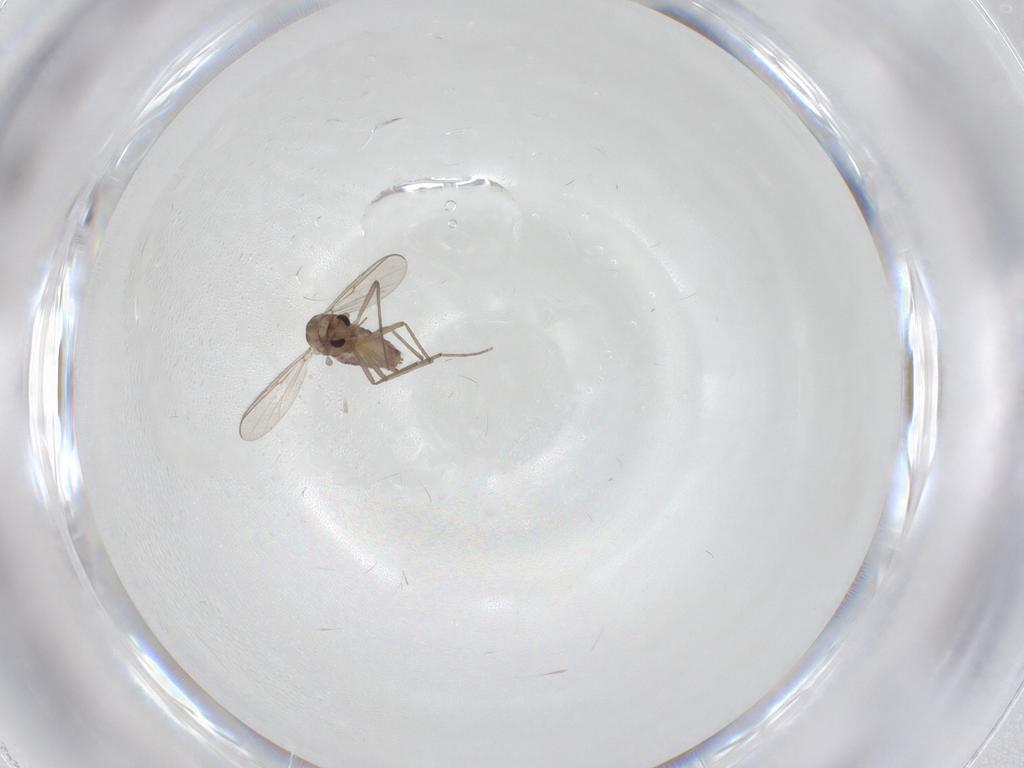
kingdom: Animalia
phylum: Arthropoda
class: Insecta
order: Diptera
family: Chironomidae
